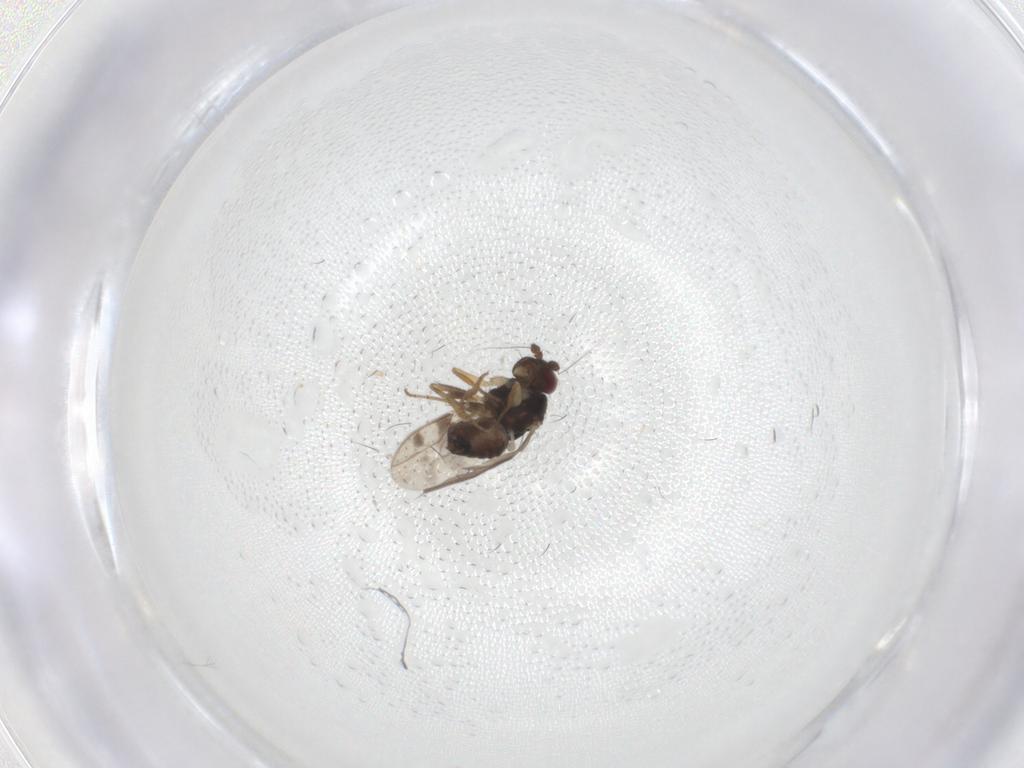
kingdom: Animalia
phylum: Arthropoda
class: Insecta
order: Diptera
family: Sphaeroceridae
